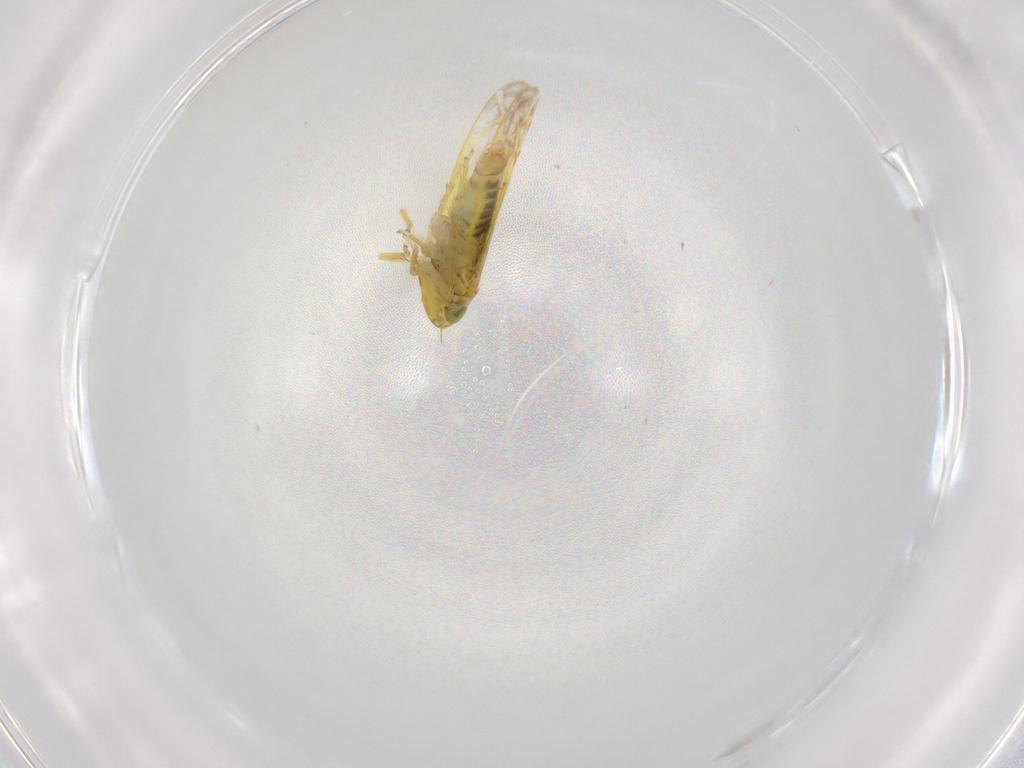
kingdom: Animalia
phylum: Arthropoda
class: Insecta
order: Hemiptera
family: Cicadellidae
